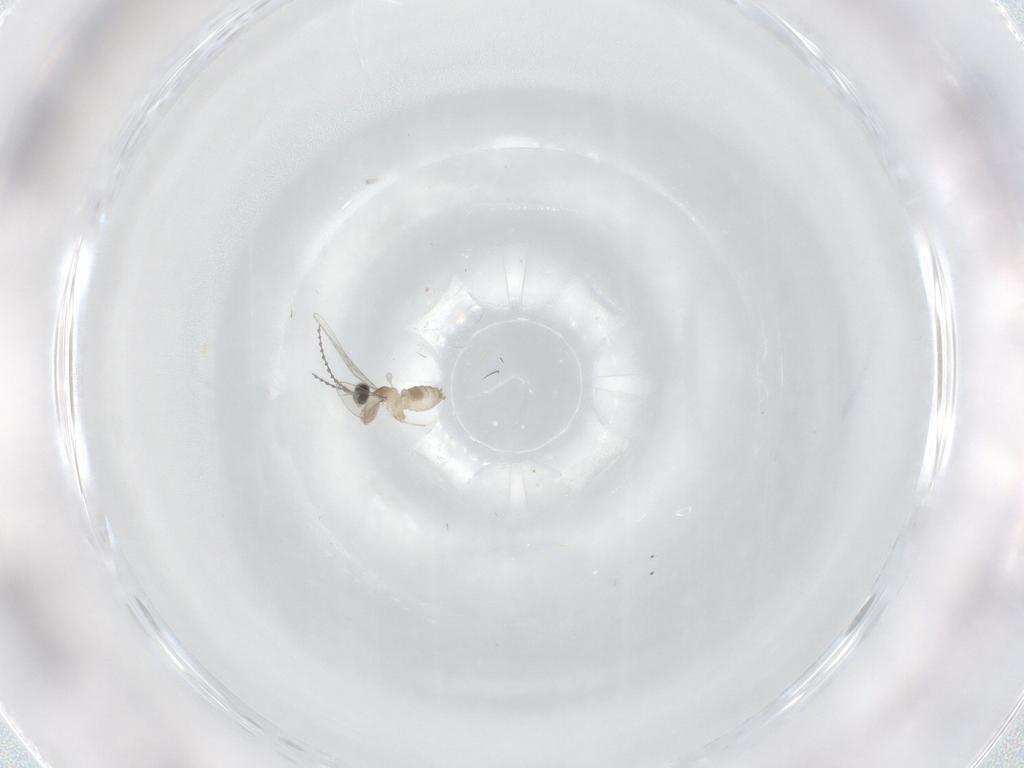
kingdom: Animalia
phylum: Arthropoda
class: Insecta
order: Diptera
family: Cecidomyiidae
